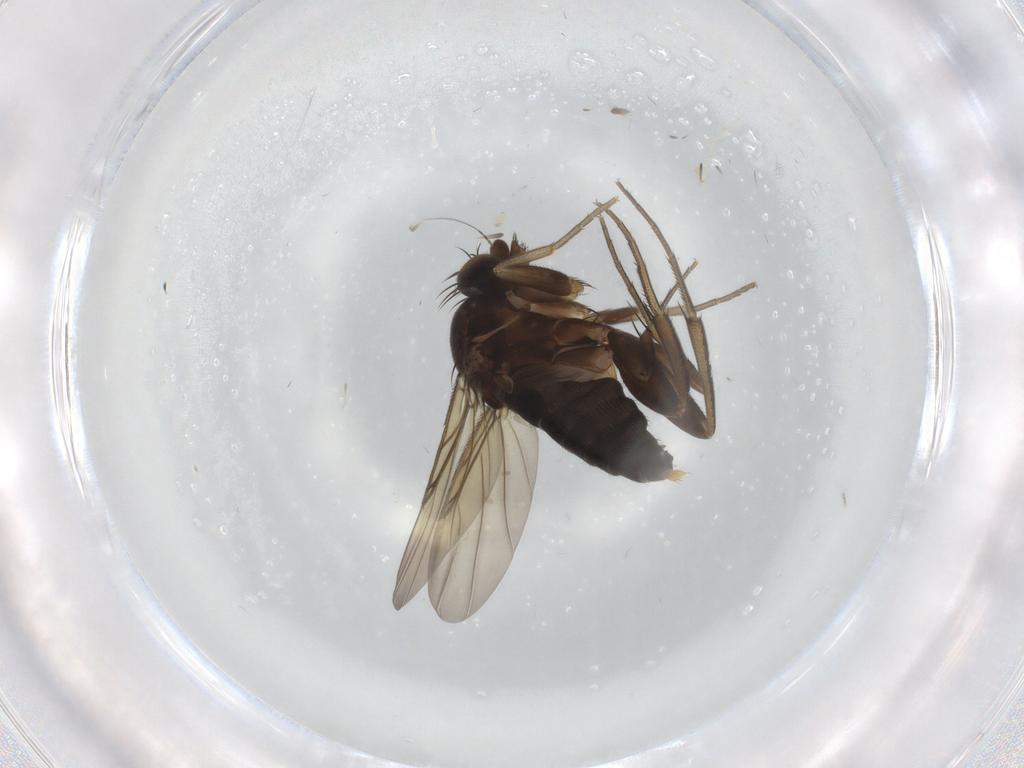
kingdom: Animalia
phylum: Arthropoda
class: Insecta
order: Diptera
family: Phoridae
